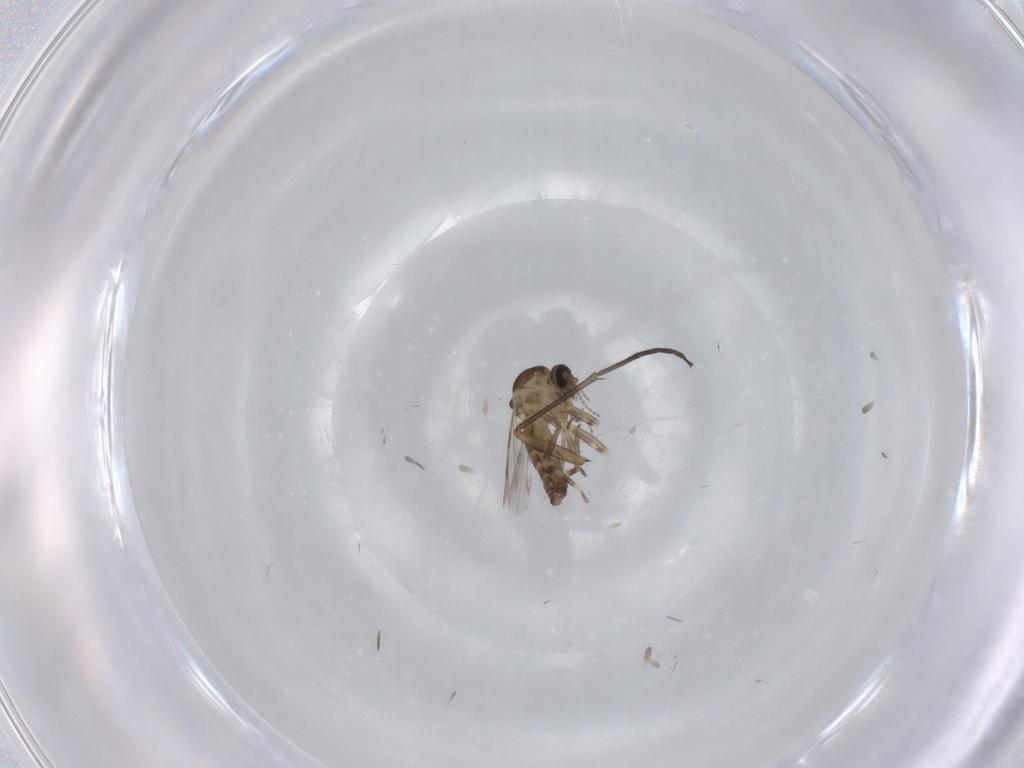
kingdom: Animalia
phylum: Arthropoda
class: Insecta
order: Diptera
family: Ceratopogonidae
